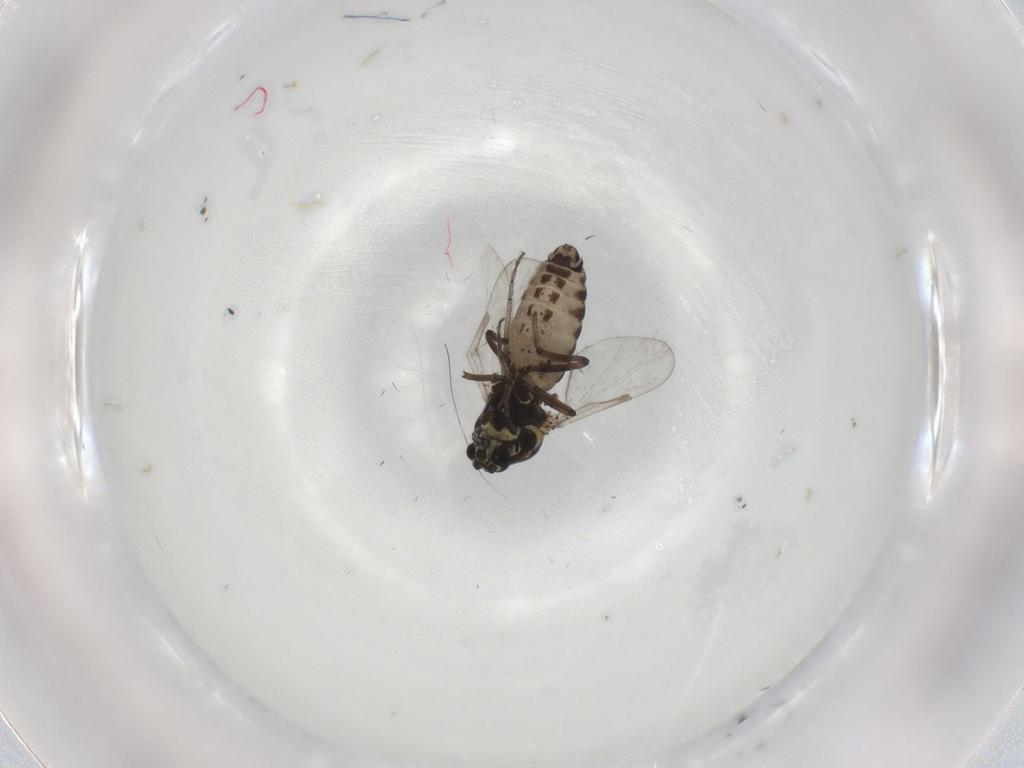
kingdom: Animalia
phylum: Arthropoda
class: Insecta
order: Diptera
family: Ceratopogonidae
